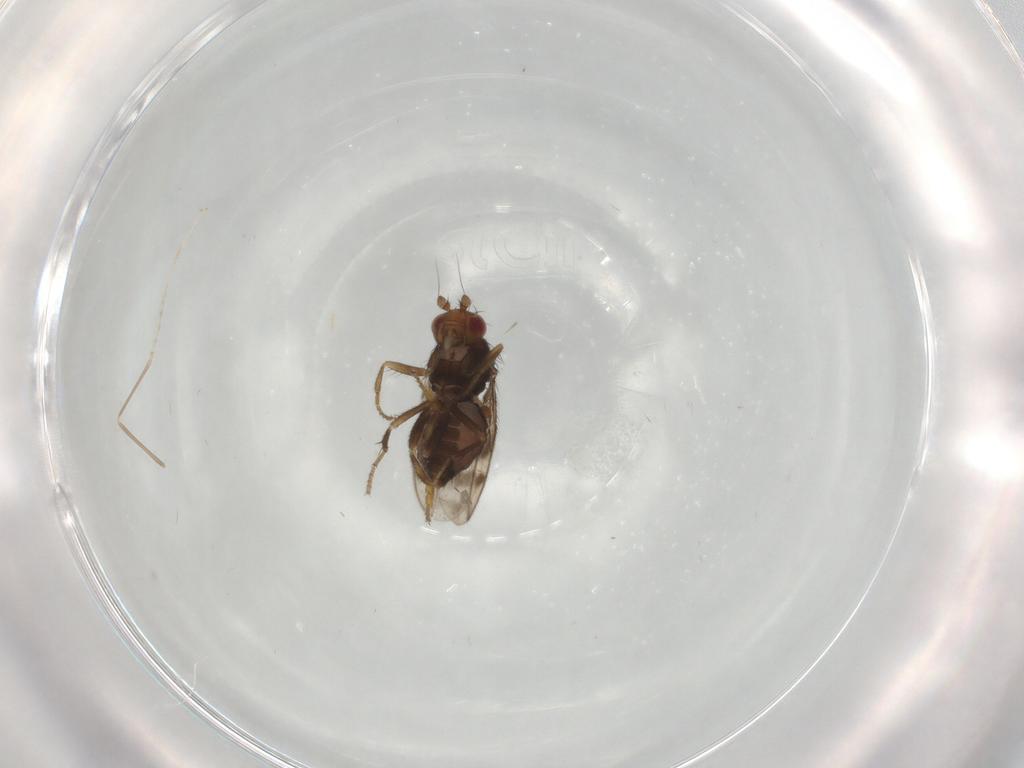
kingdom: Animalia
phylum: Arthropoda
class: Insecta
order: Diptera
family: Sphaeroceridae
